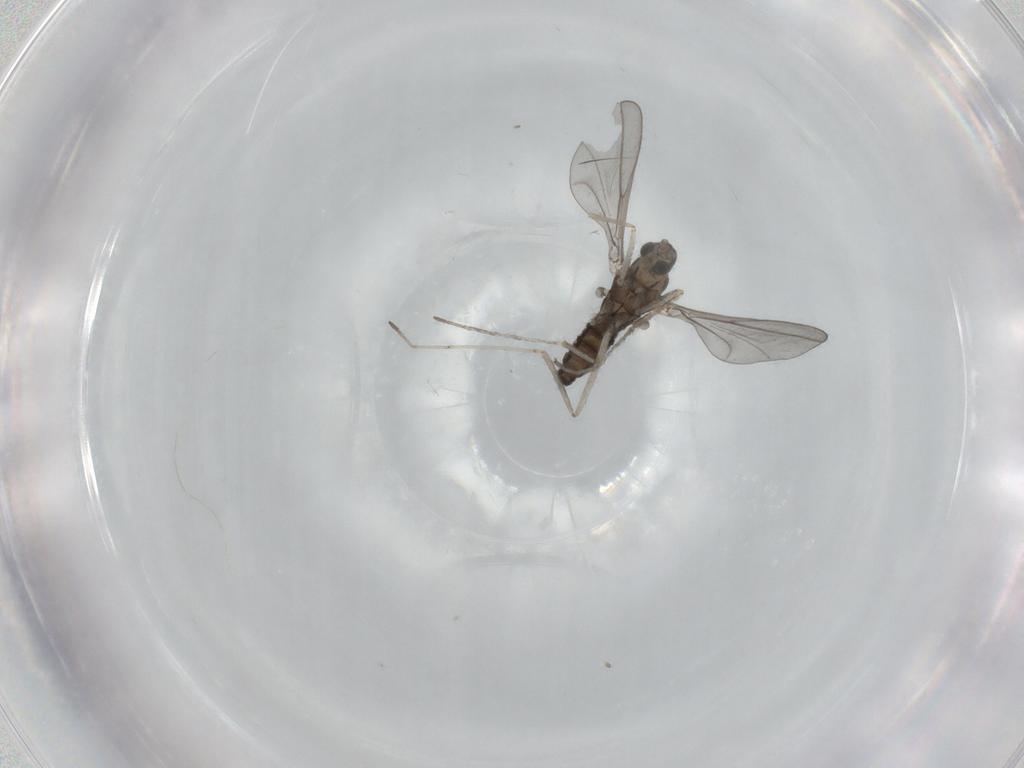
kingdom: Animalia
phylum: Arthropoda
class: Insecta
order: Diptera
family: Cecidomyiidae
